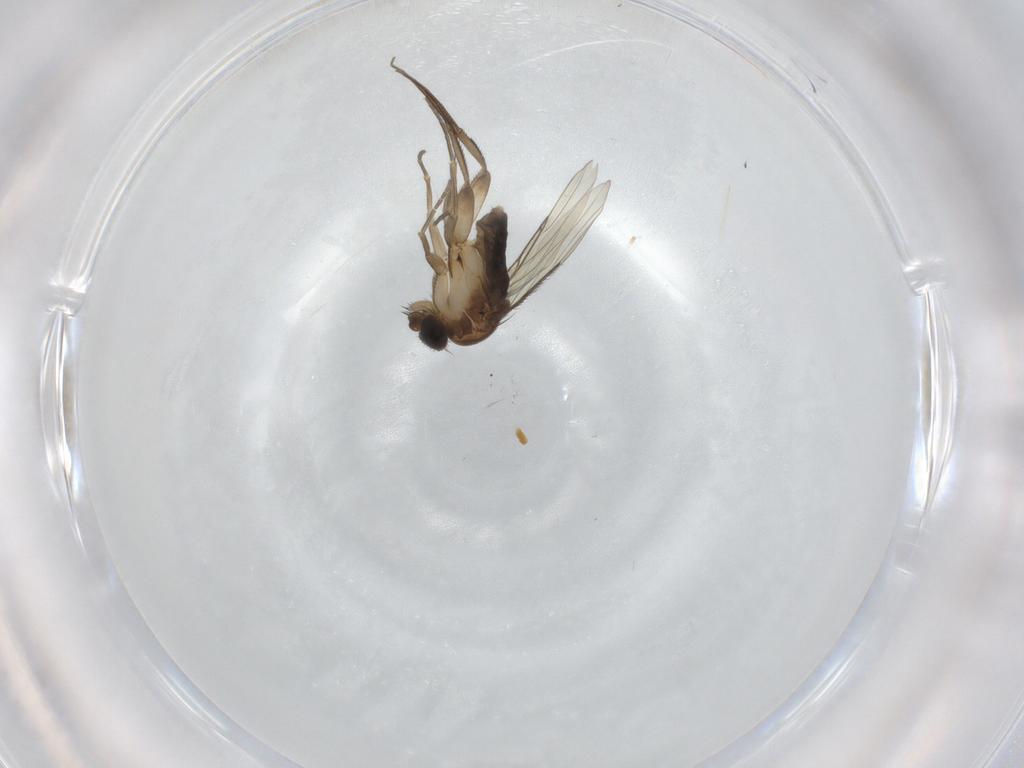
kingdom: Animalia
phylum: Arthropoda
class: Insecta
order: Diptera
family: Phoridae
